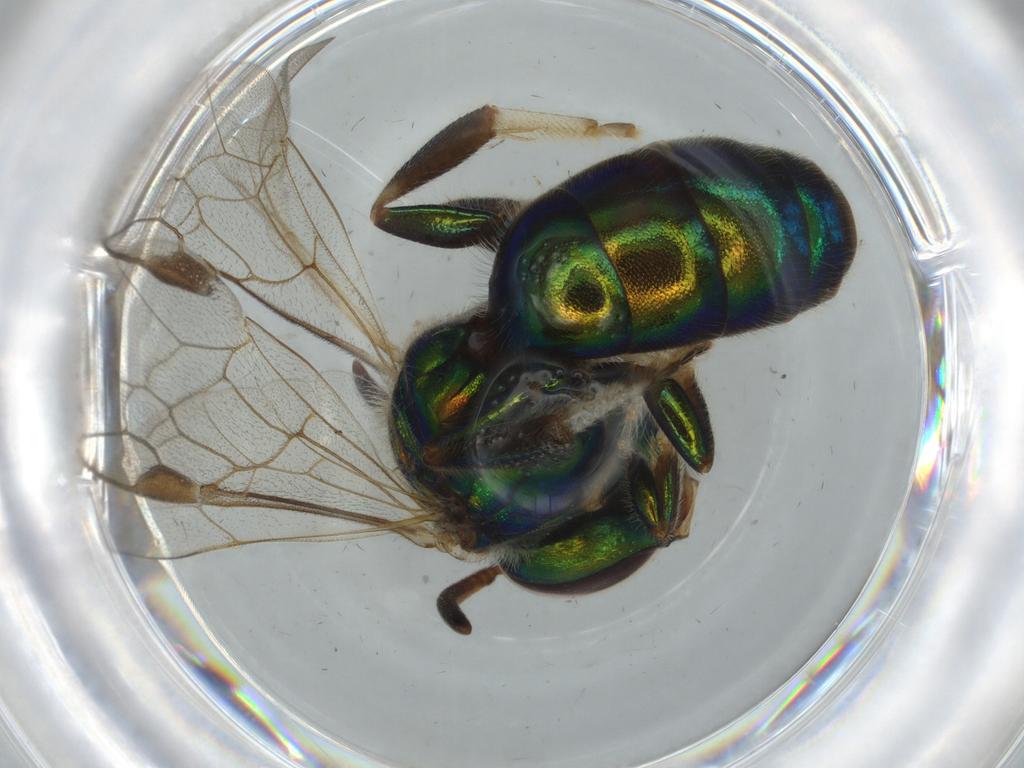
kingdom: Animalia
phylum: Arthropoda
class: Insecta
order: Hymenoptera
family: Halictidae
